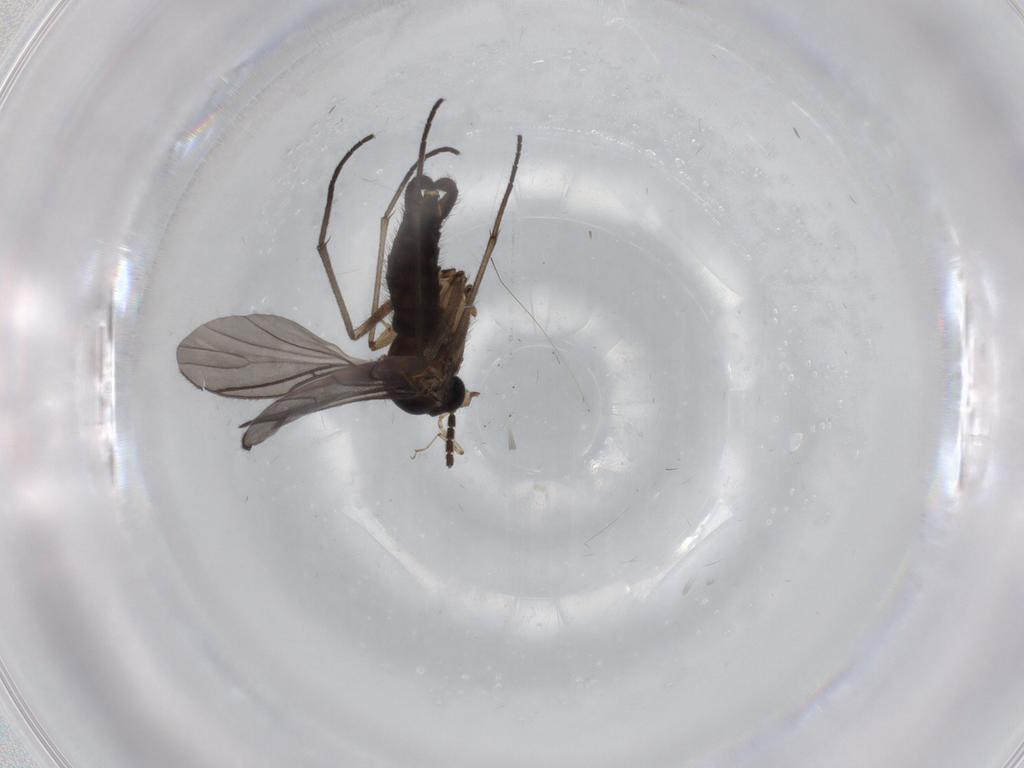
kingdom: Animalia
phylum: Arthropoda
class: Insecta
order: Diptera
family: Sciaridae
